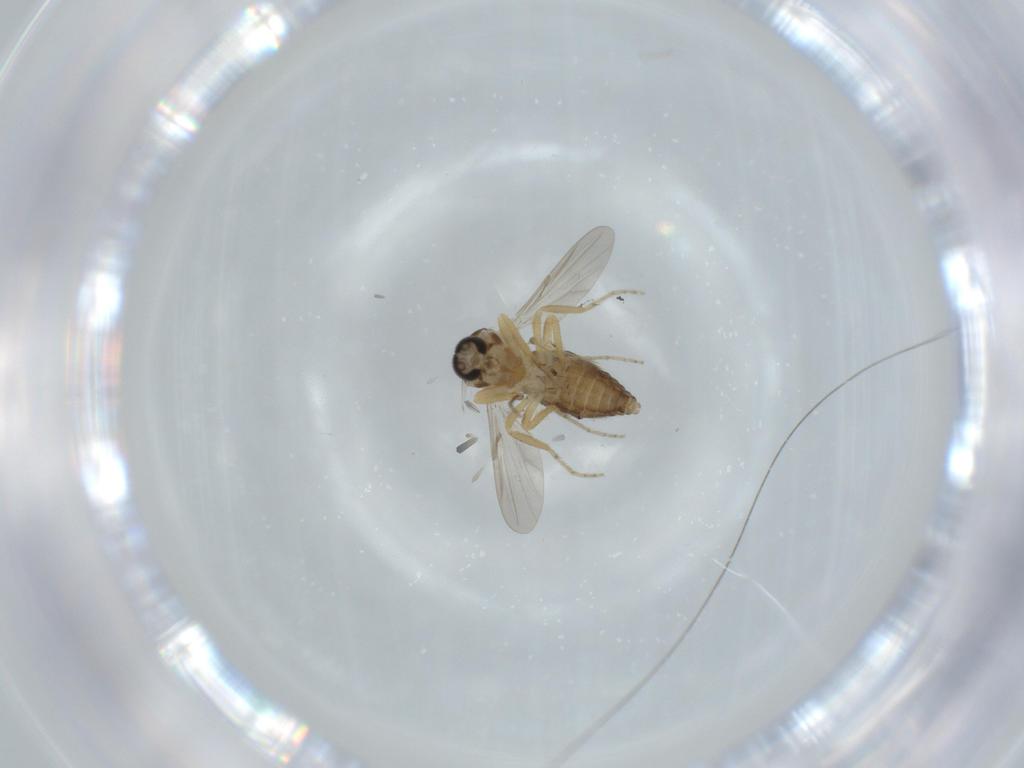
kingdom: Animalia
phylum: Arthropoda
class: Insecta
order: Diptera
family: Ceratopogonidae
